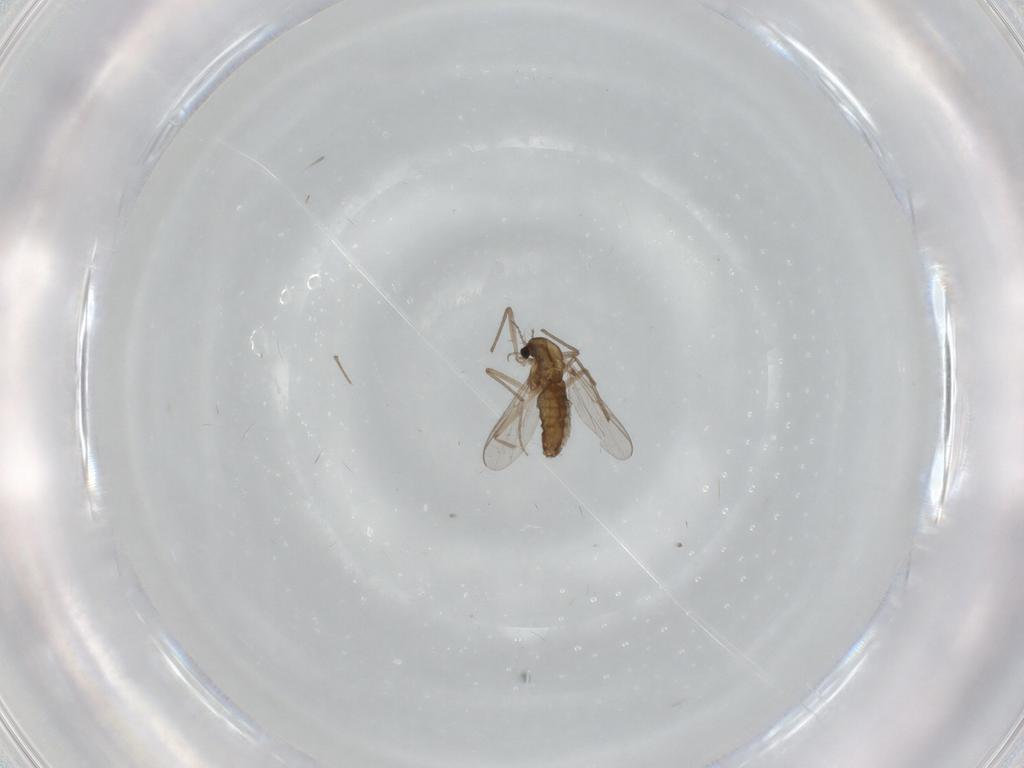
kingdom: Animalia
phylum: Arthropoda
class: Insecta
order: Diptera
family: Chironomidae
